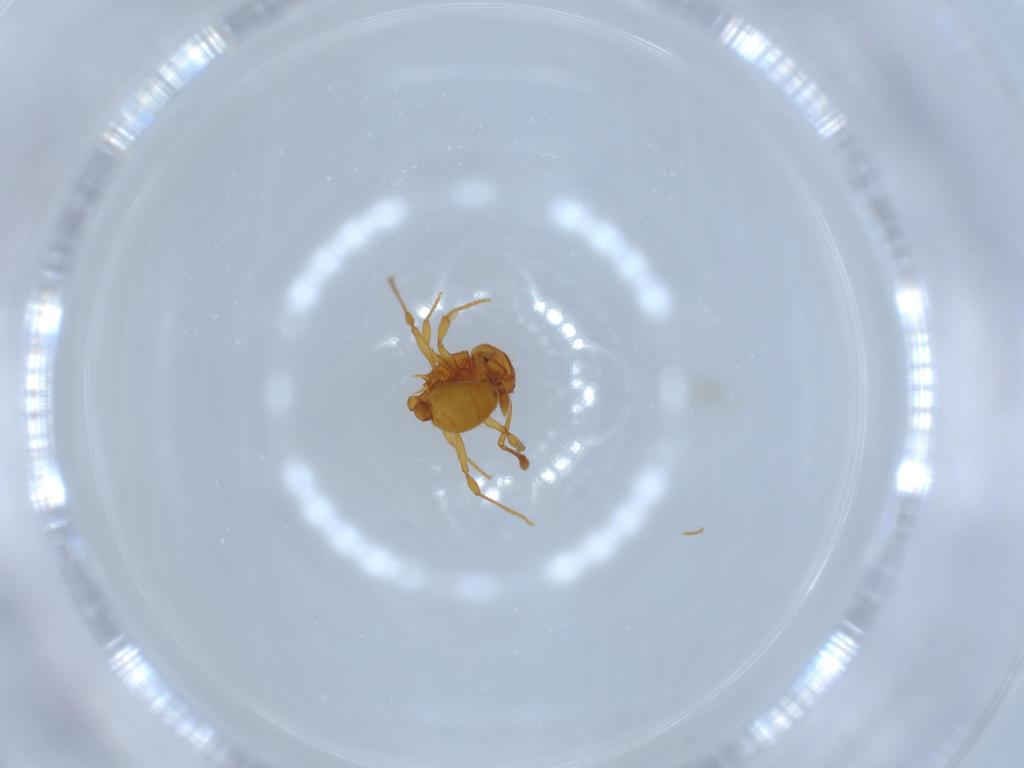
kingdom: Animalia
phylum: Arthropoda
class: Insecta
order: Hymenoptera
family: Formicidae
